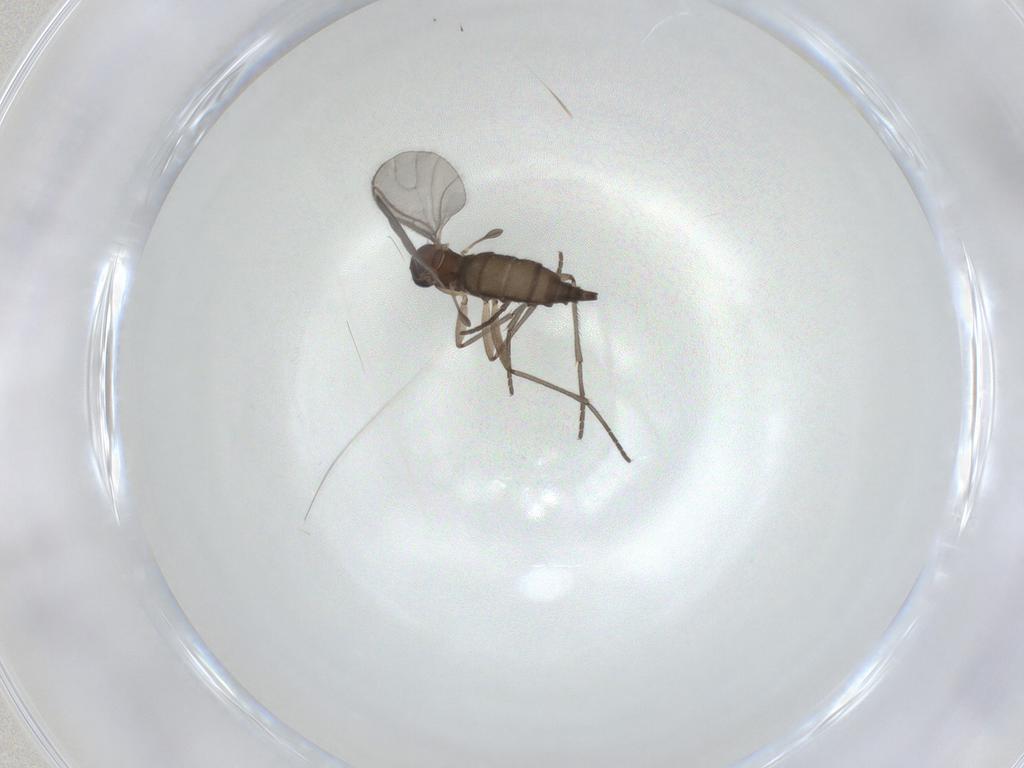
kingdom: Animalia
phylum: Arthropoda
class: Insecta
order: Diptera
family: Sciaridae
